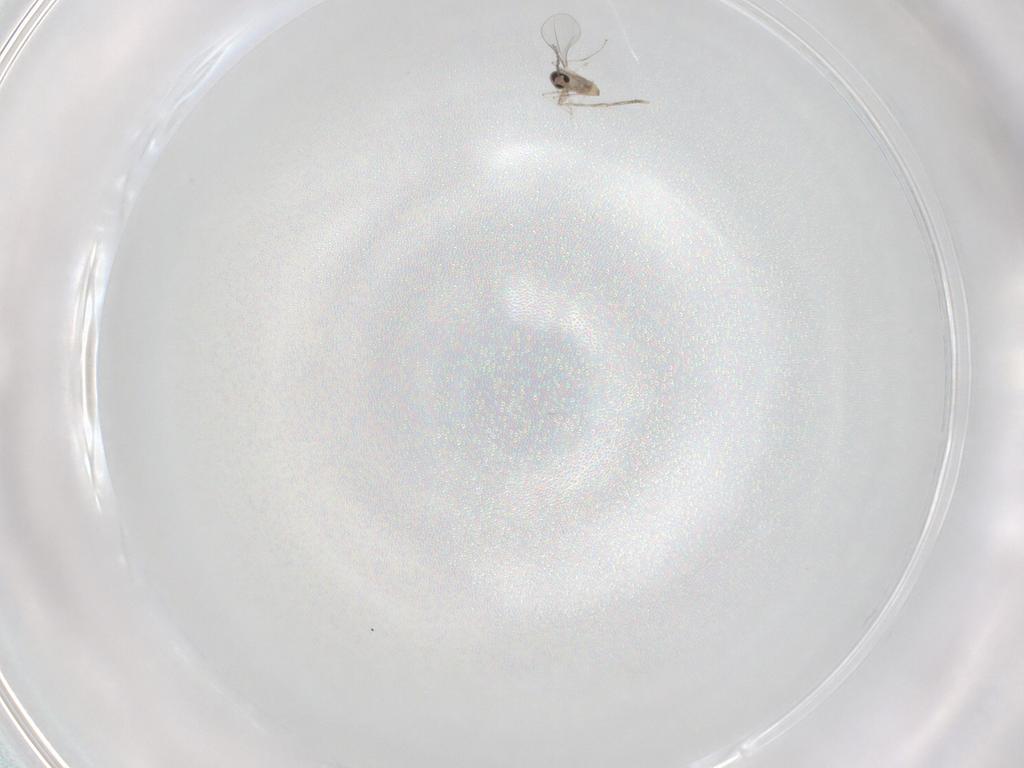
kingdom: Animalia
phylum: Arthropoda
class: Insecta
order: Diptera
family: Cecidomyiidae
